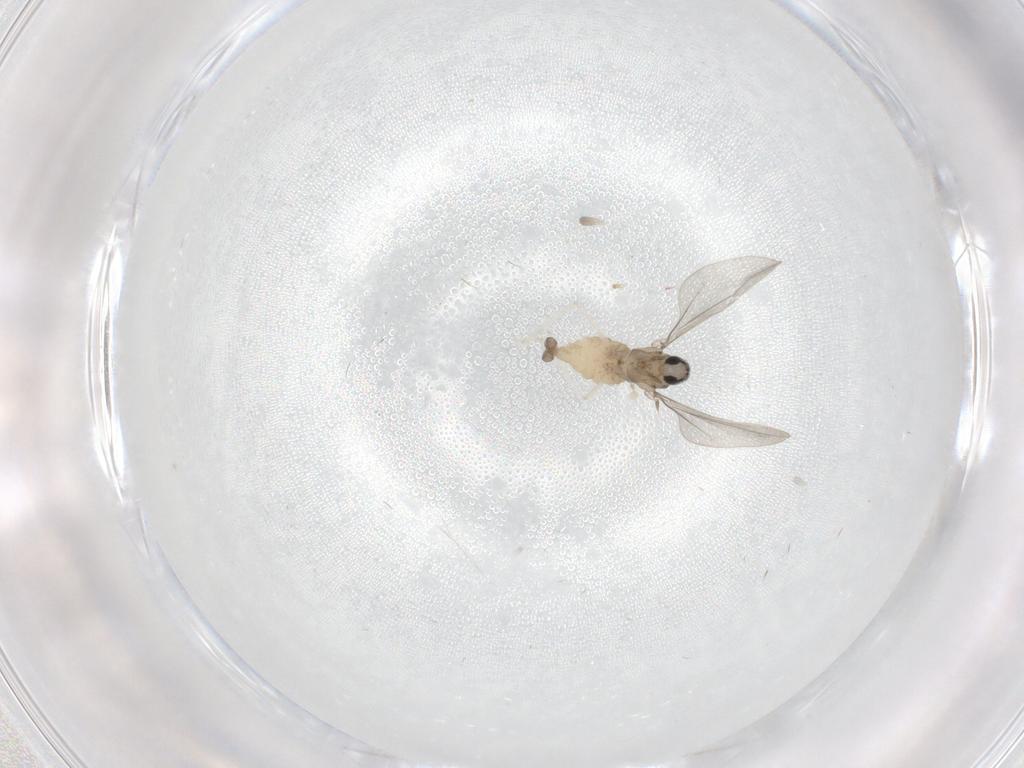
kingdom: Animalia
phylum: Arthropoda
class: Insecta
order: Diptera
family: Cecidomyiidae
